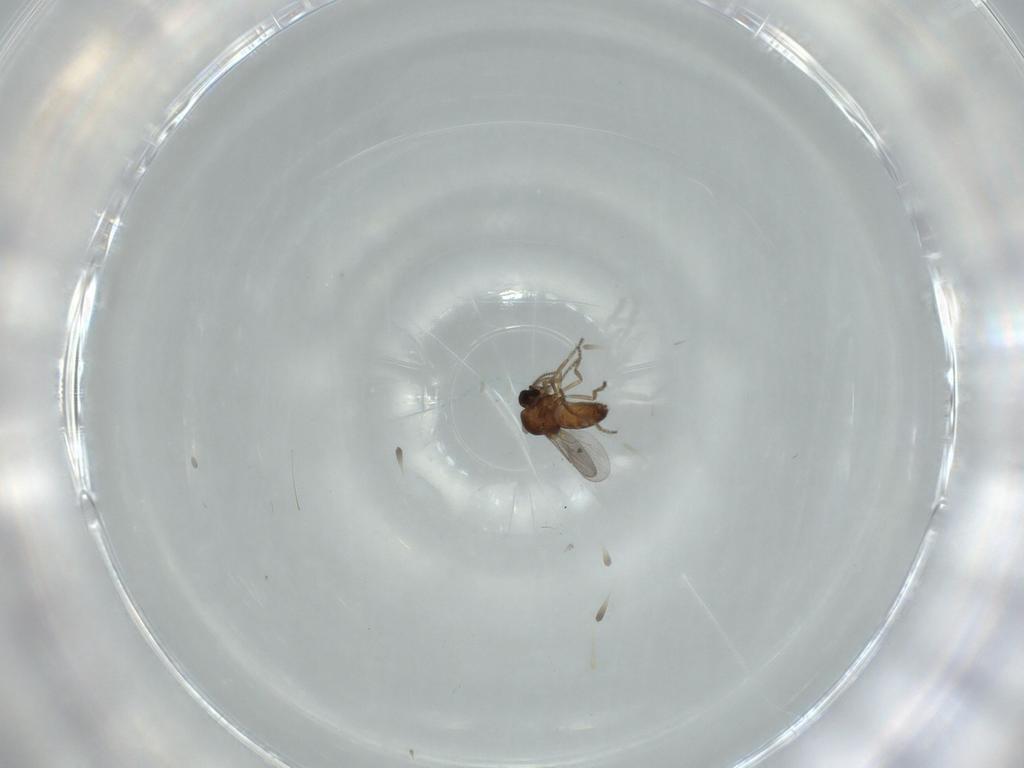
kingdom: Animalia
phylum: Arthropoda
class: Insecta
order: Diptera
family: Ceratopogonidae
